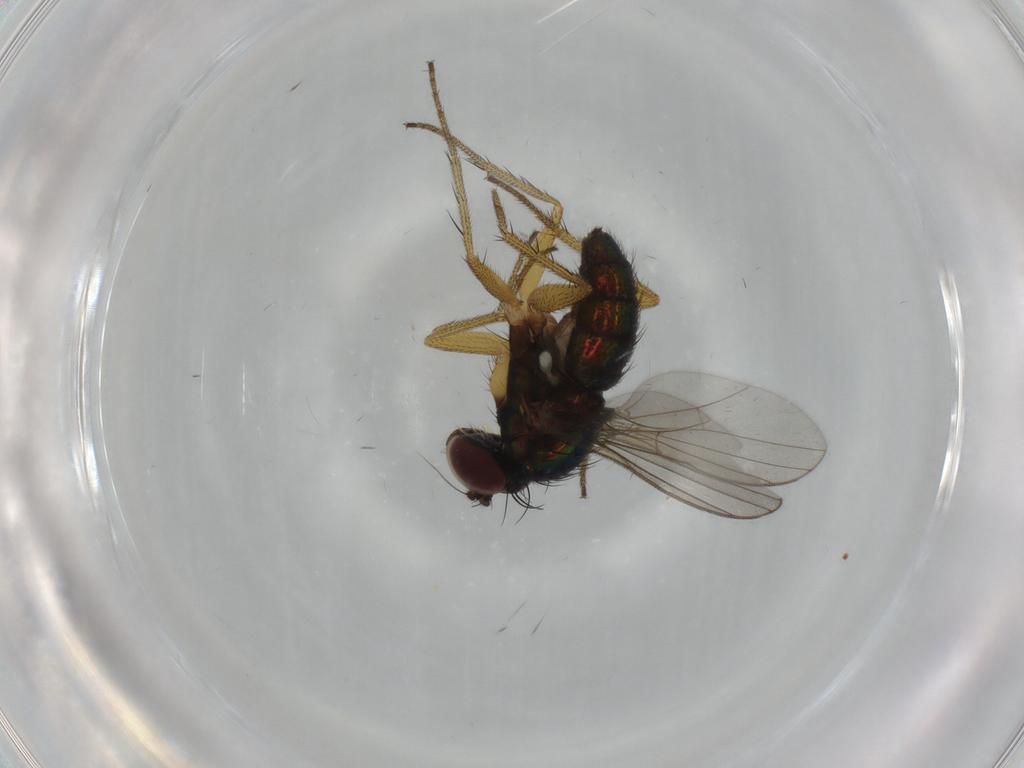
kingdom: Animalia
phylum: Arthropoda
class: Insecta
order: Diptera
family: Dolichopodidae
